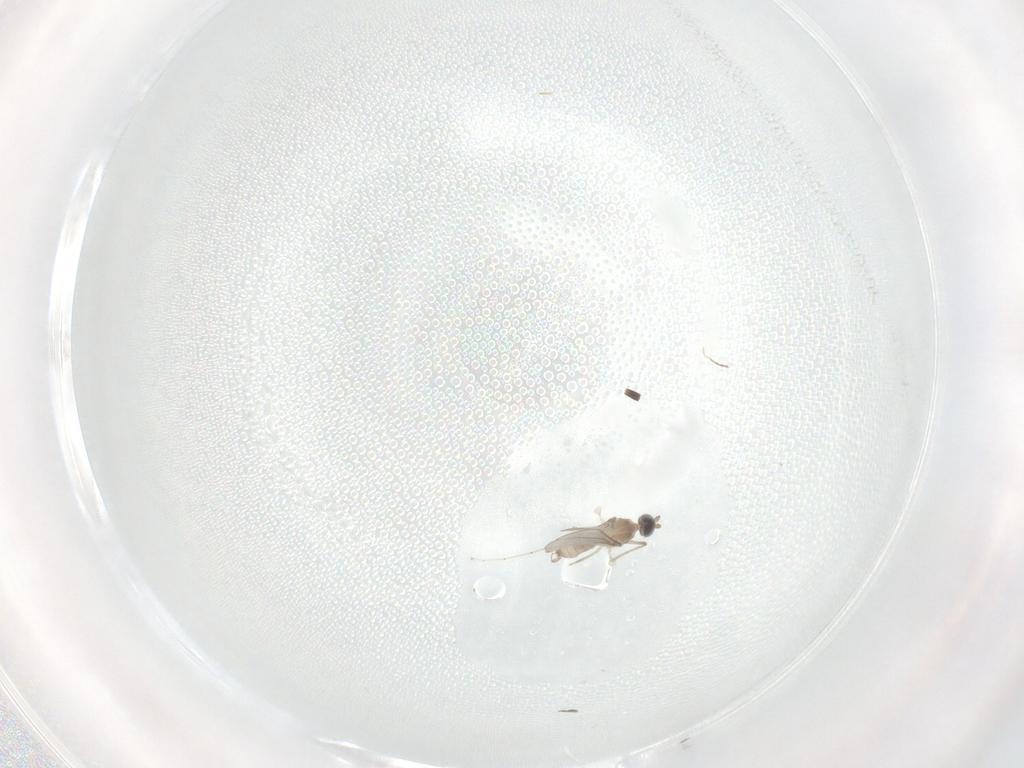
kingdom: Animalia
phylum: Arthropoda
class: Insecta
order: Diptera
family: Cecidomyiidae
